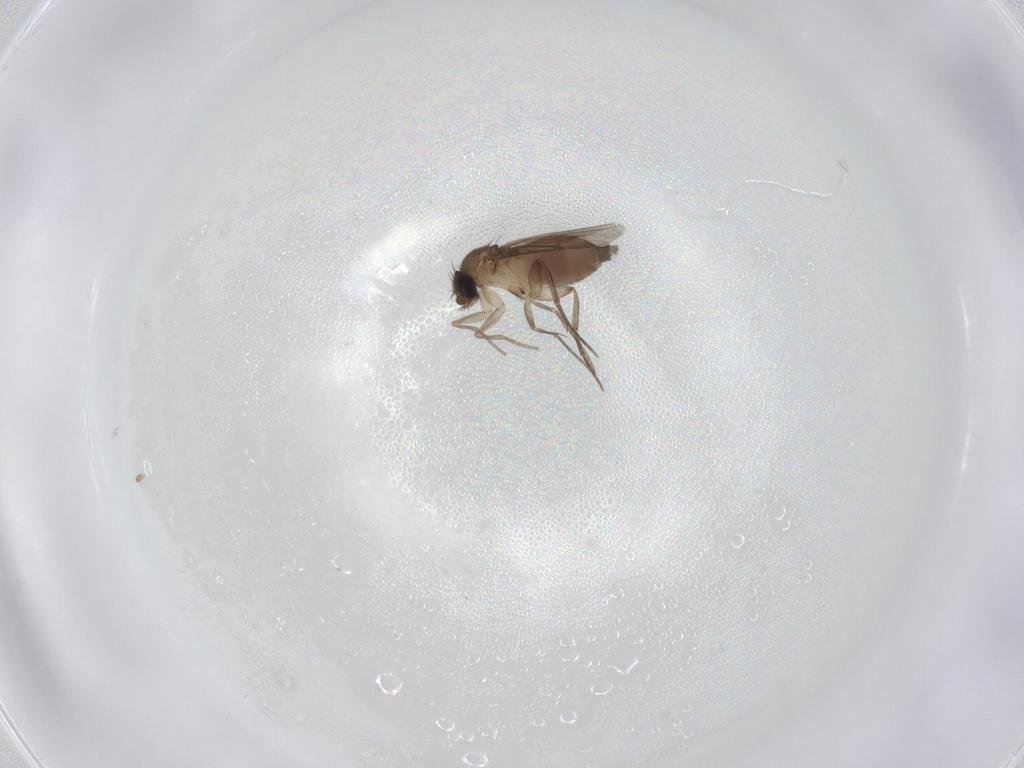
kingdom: Animalia
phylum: Arthropoda
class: Insecta
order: Diptera
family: Phoridae
